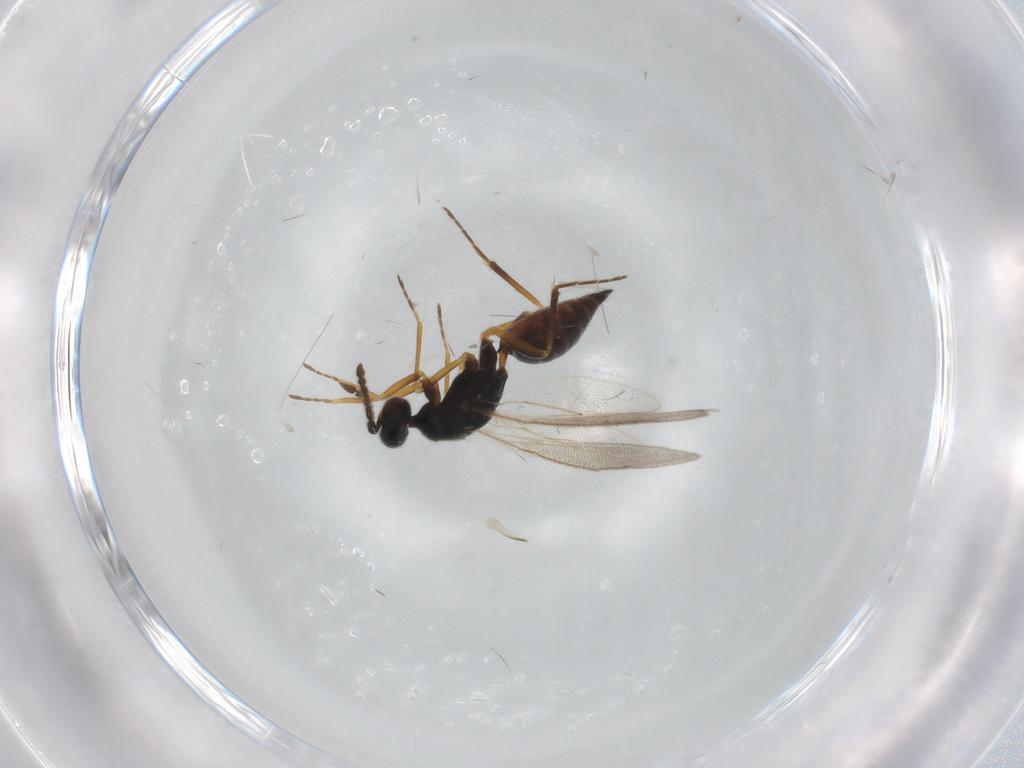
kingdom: Animalia
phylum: Arthropoda
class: Insecta
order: Hymenoptera
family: Eulophidae
